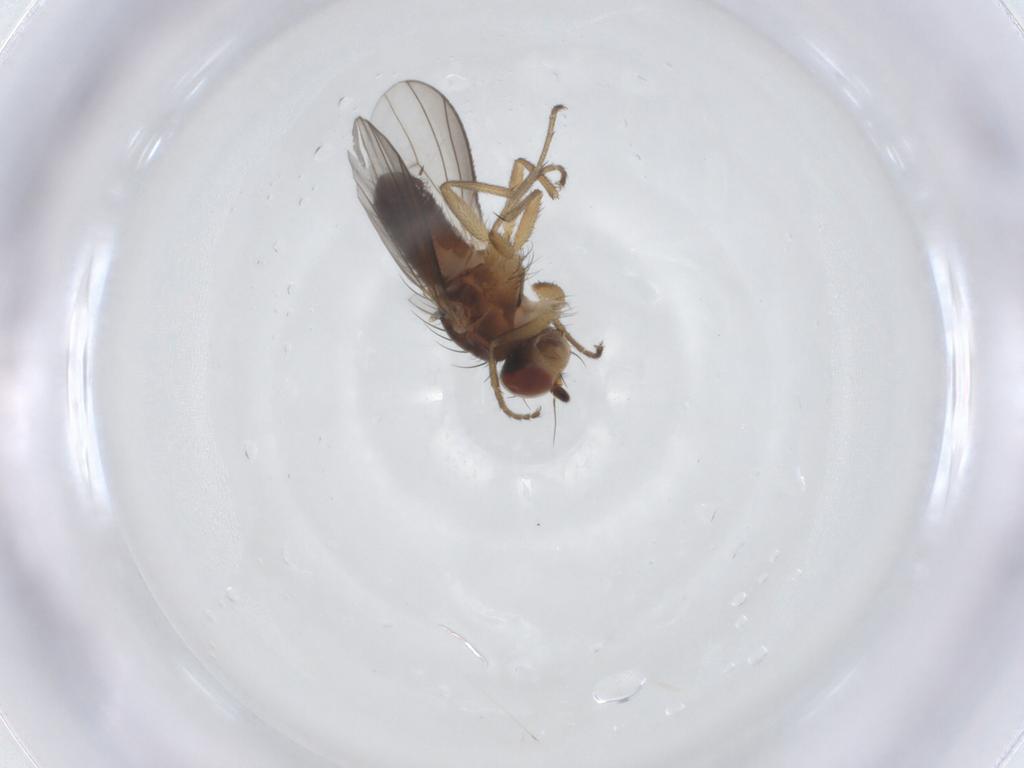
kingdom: Animalia
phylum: Arthropoda
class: Insecta
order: Diptera
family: Heleomyzidae
